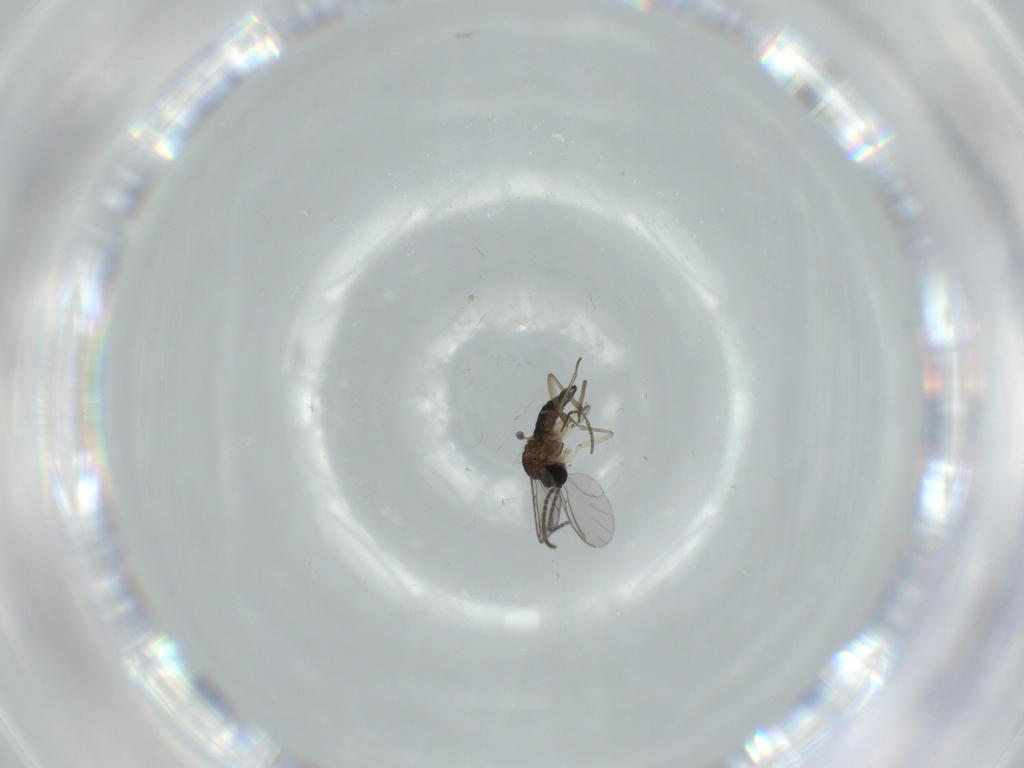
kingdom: Animalia
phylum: Arthropoda
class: Insecta
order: Diptera
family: Sciaridae
